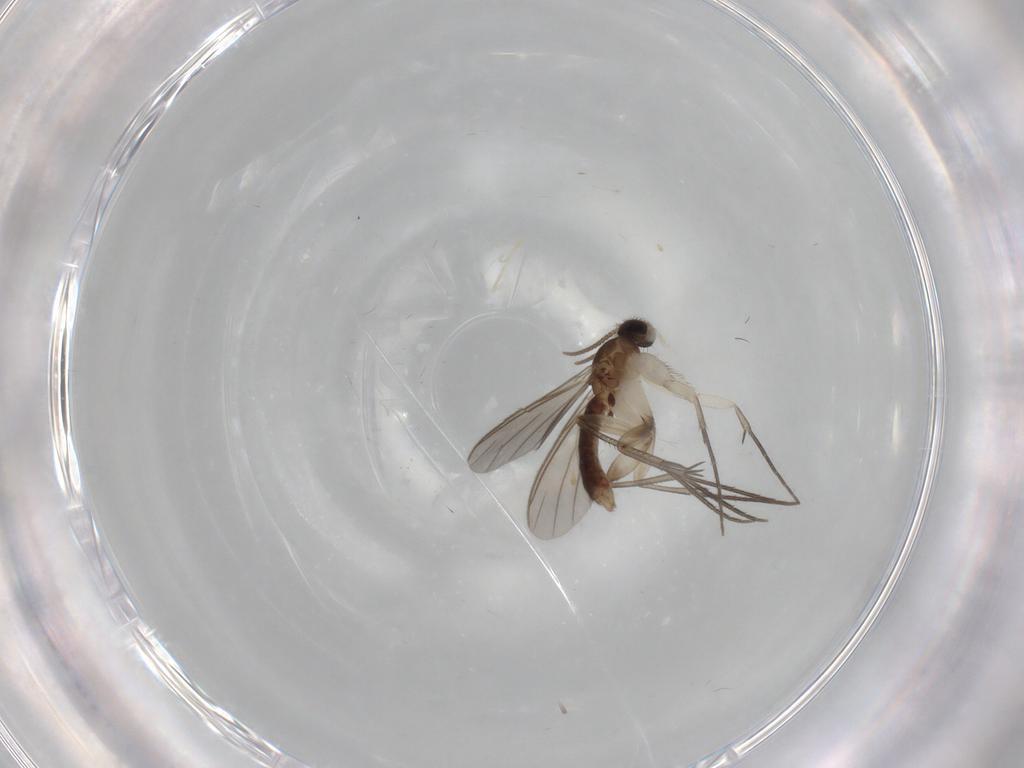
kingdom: Animalia
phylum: Arthropoda
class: Insecta
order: Diptera
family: Mycetophilidae
